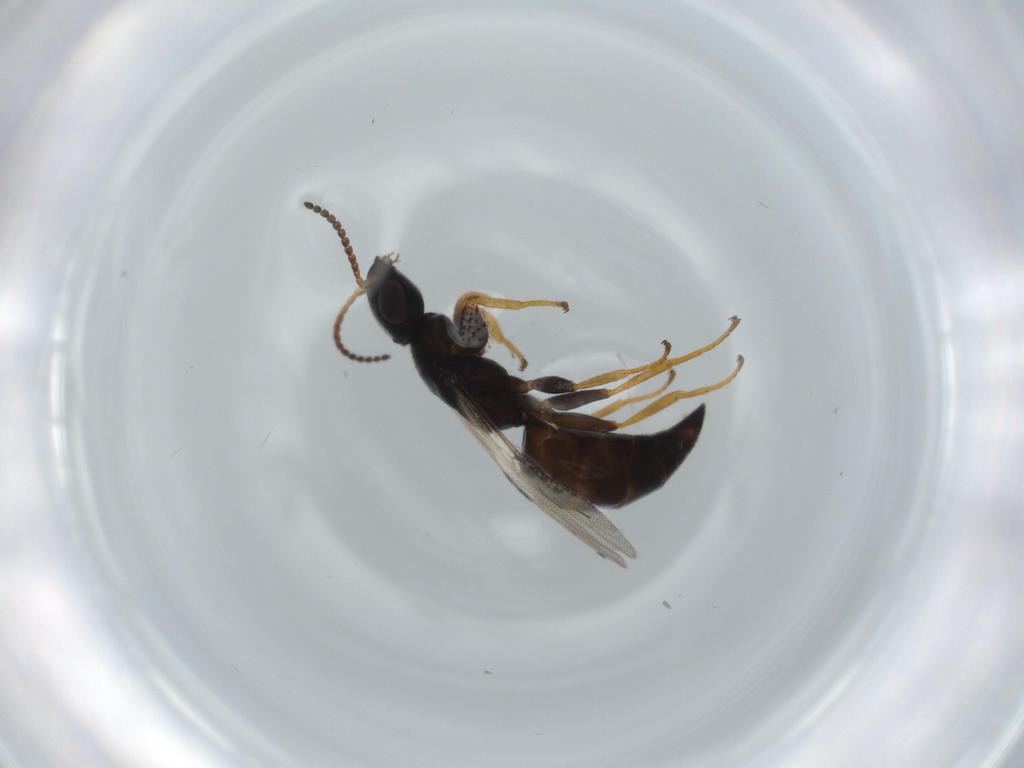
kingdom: Animalia
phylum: Arthropoda
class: Insecta
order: Hymenoptera
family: Bethylidae
